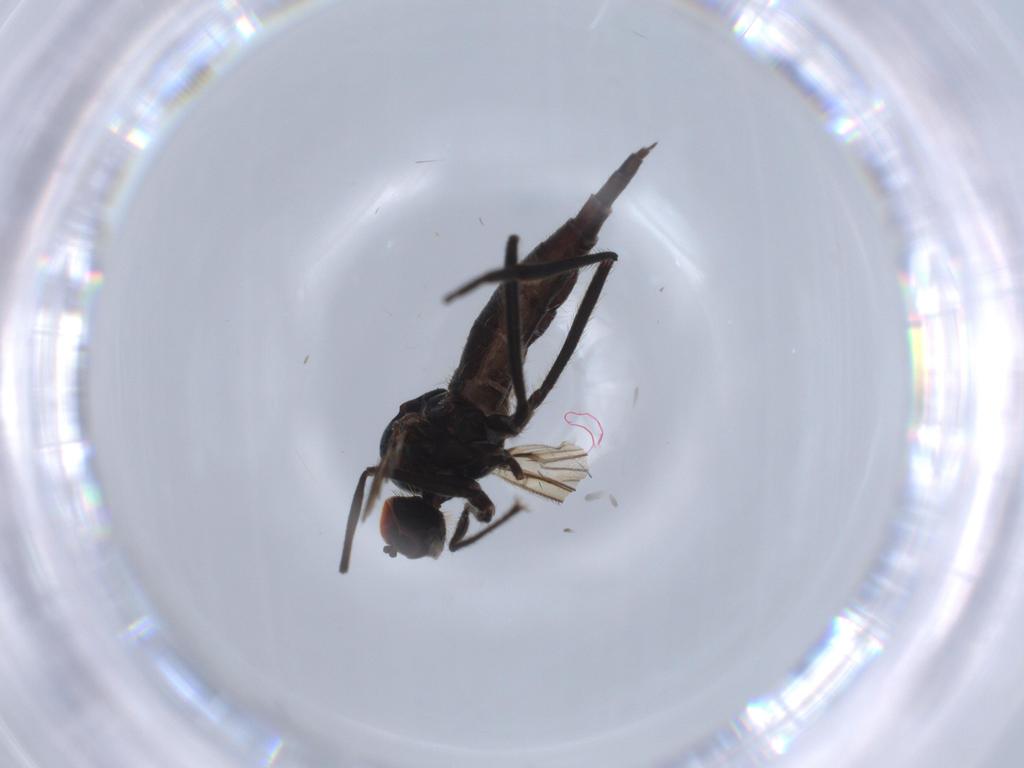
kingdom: Animalia
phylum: Arthropoda
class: Insecta
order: Diptera
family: Hybotidae
